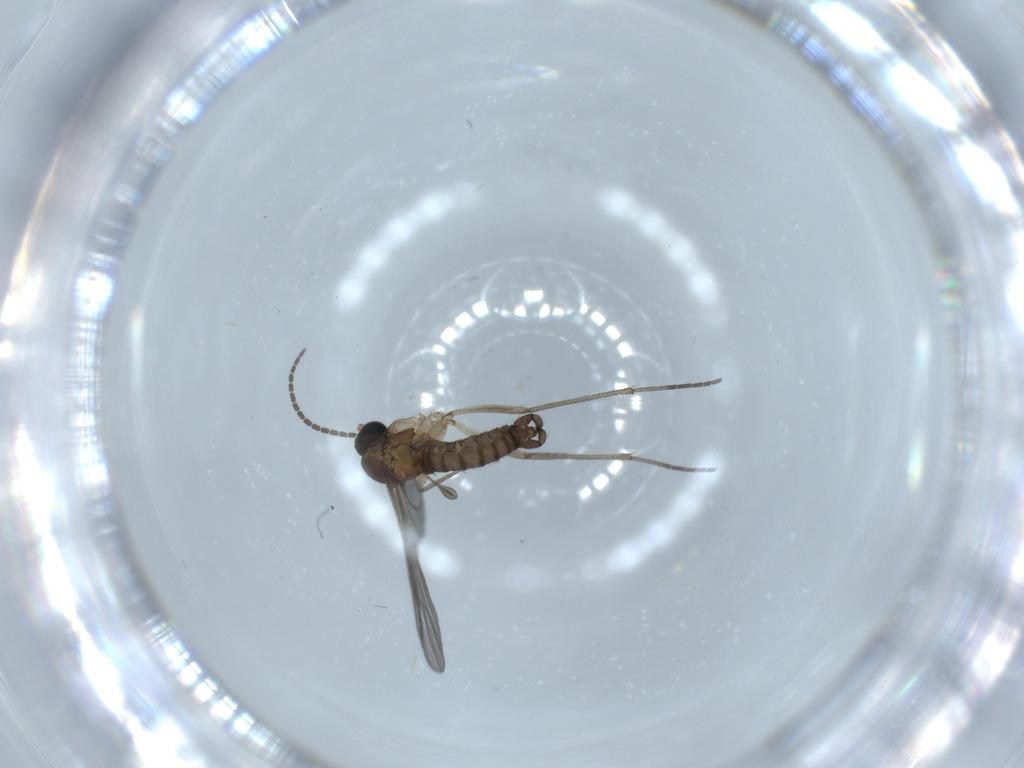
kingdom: Animalia
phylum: Arthropoda
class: Insecta
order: Diptera
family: Sciaridae
